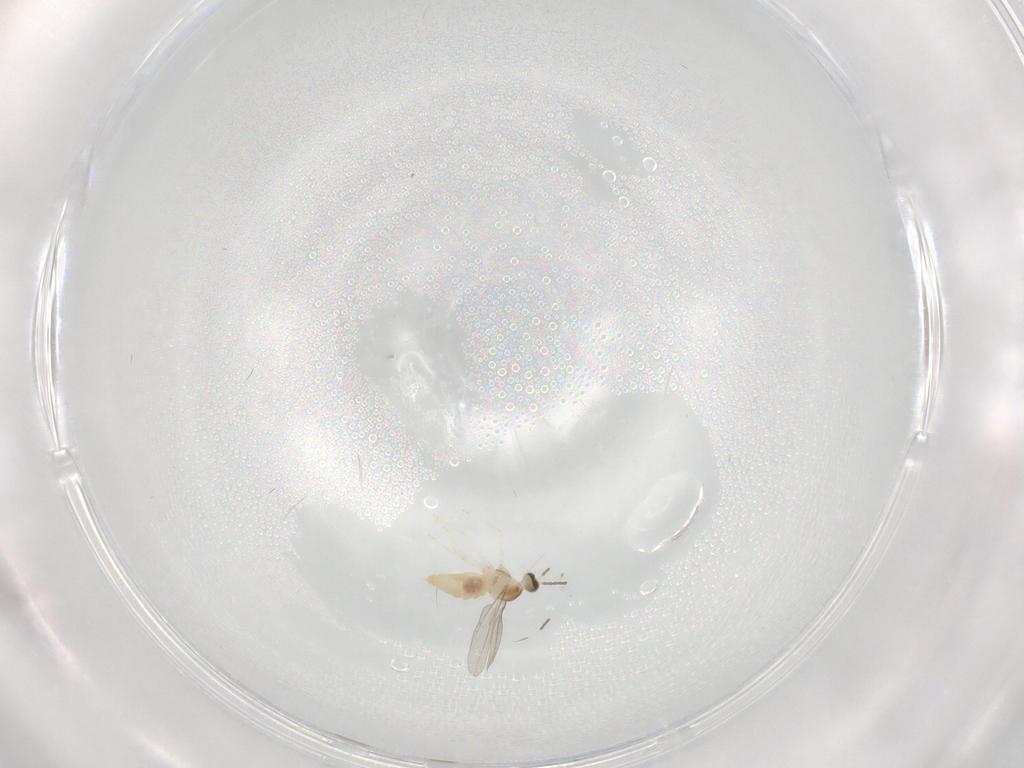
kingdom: Animalia
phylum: Arthropoda
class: Insecta
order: Diptera
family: Cecidomyiidae
